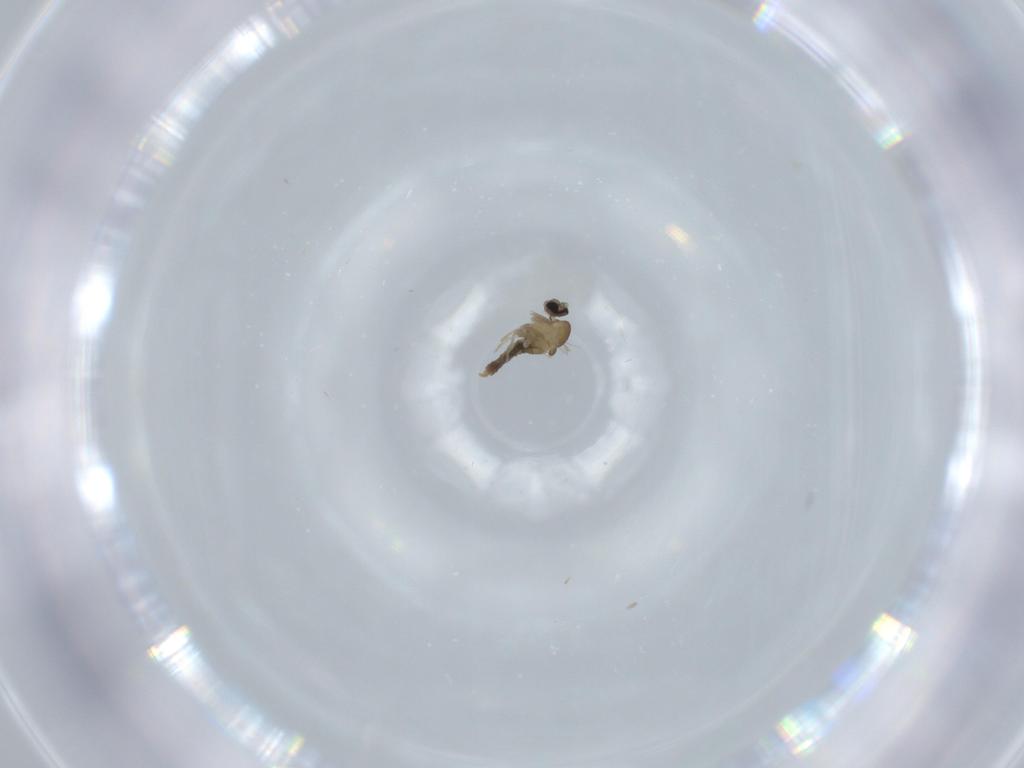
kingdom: Animalia
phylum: Arthropoda
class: Insecta
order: Diptera
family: Cecidomyiidae
